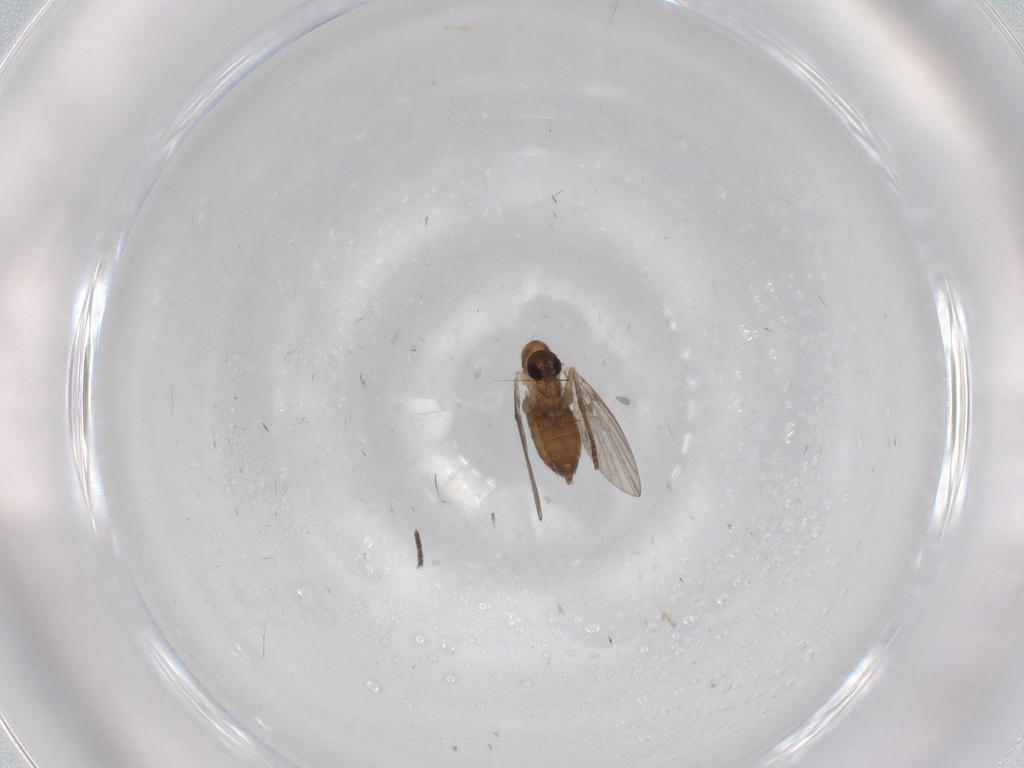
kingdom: Animalia
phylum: Arthropoda
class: Insecta
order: Diptera
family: Psychodidae
